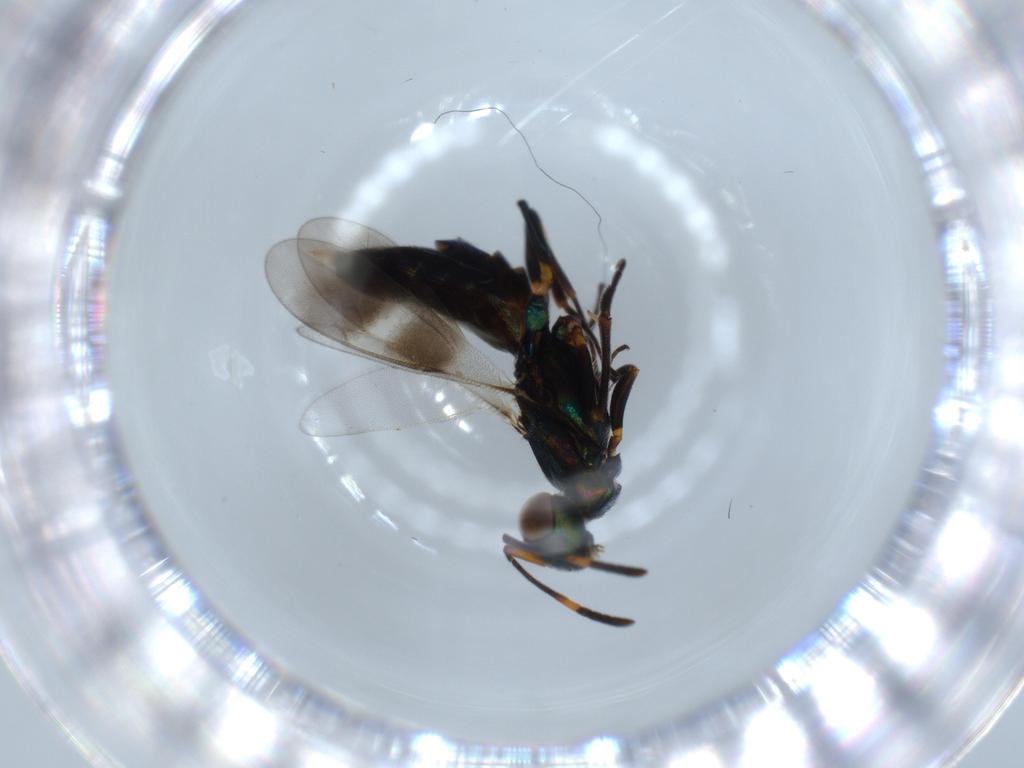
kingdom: Animalia
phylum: Arthropoda
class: Insecta
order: Hymenoptera
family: Eupelmidae
